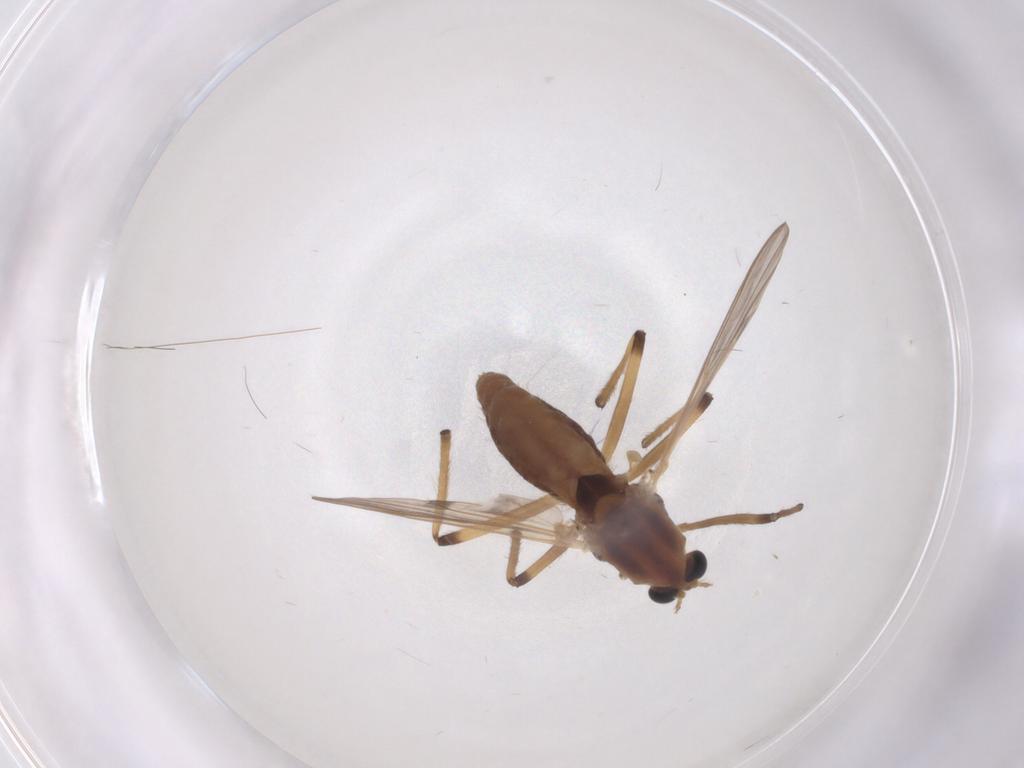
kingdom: Animalia
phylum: Arthropoda
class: Insecta
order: Diptera
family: Chironomidae
